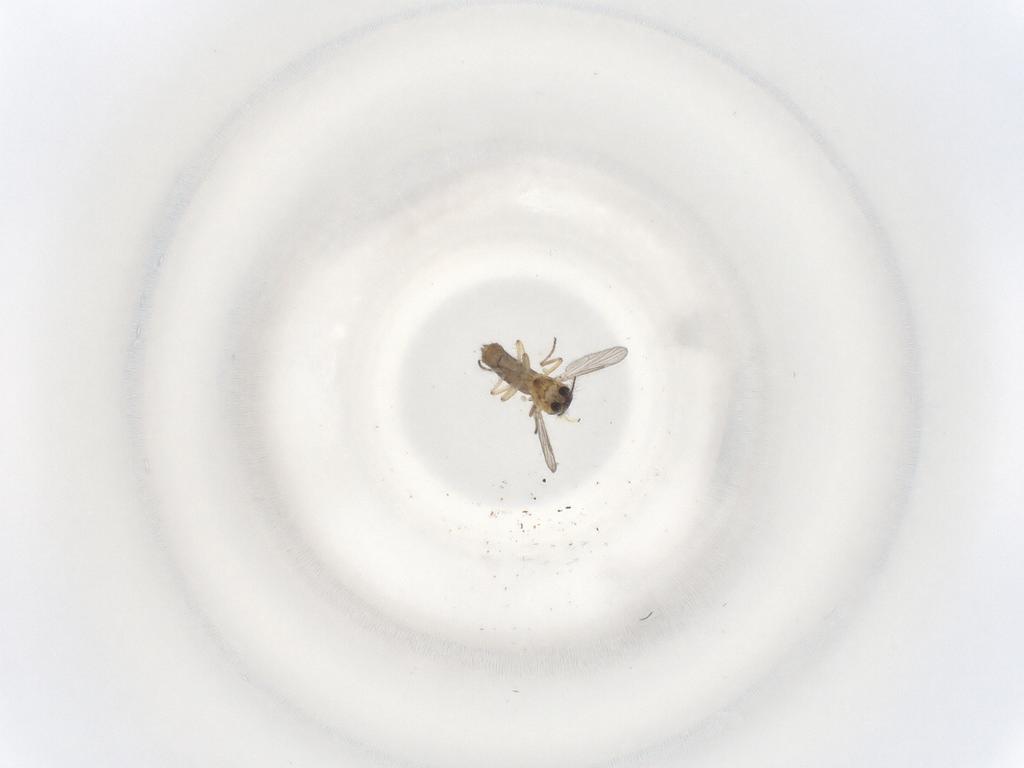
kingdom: Animalia
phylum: Arthropoda
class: Insecta
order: Diptera
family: Ceratopogonidae
